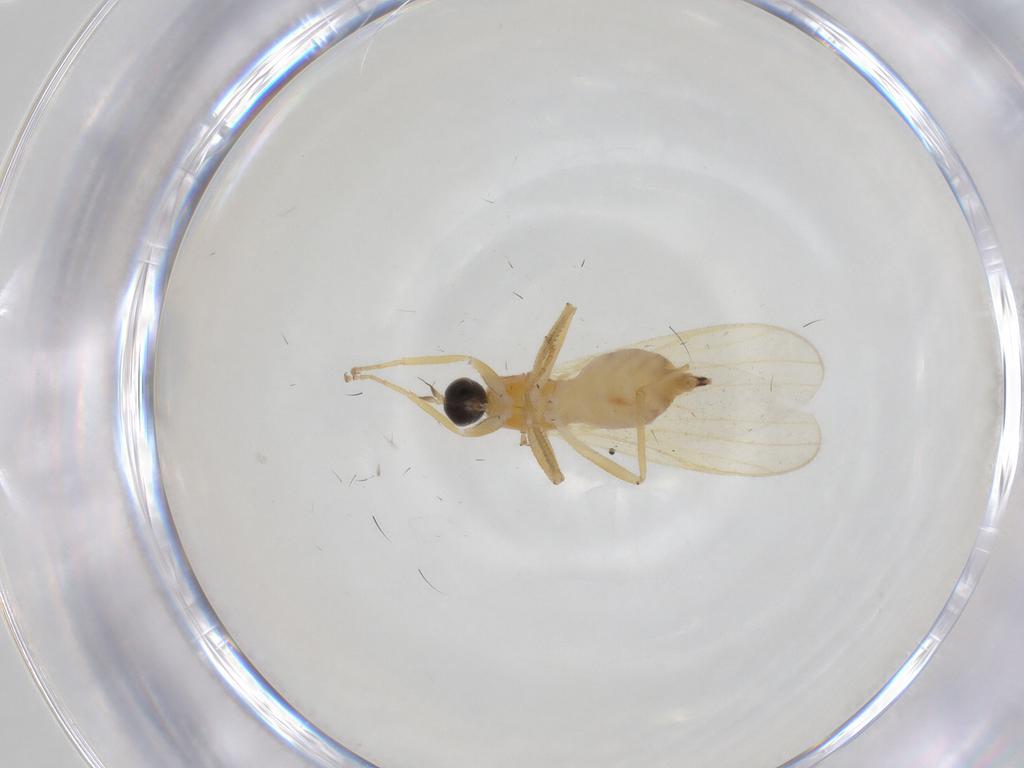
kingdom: Animalia
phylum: Arthropoda
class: Insecta
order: Diptera
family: Hybotidae
